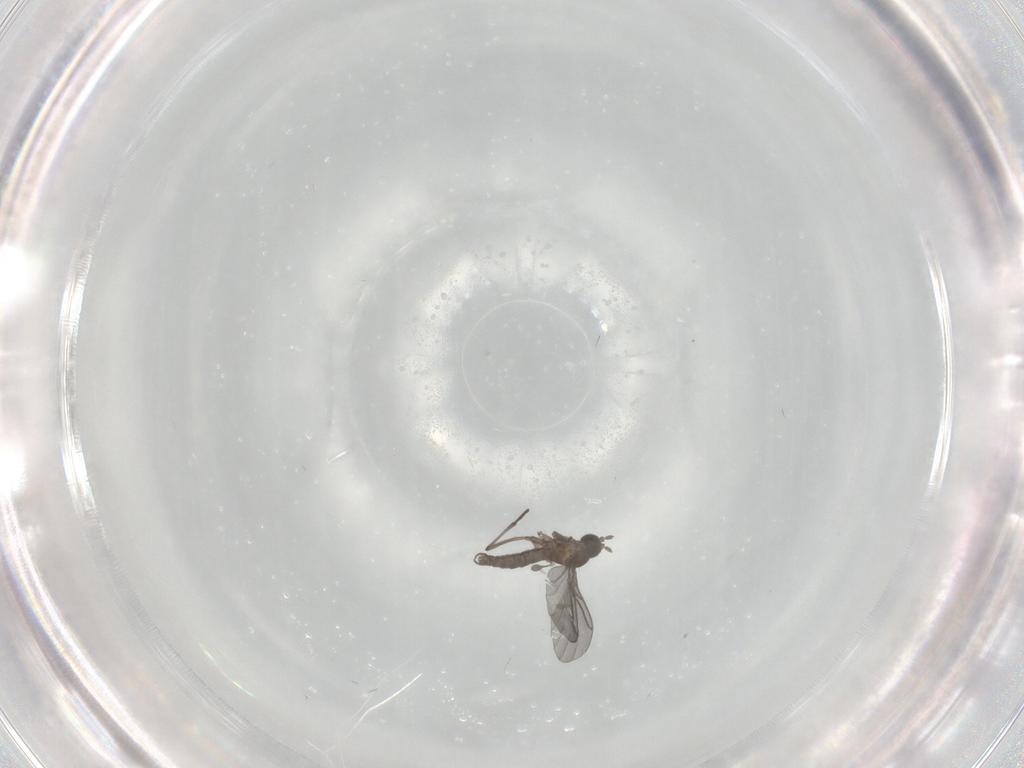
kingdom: Animalia
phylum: Arthropoda
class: Insecta
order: Diptera
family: Sciaridae
